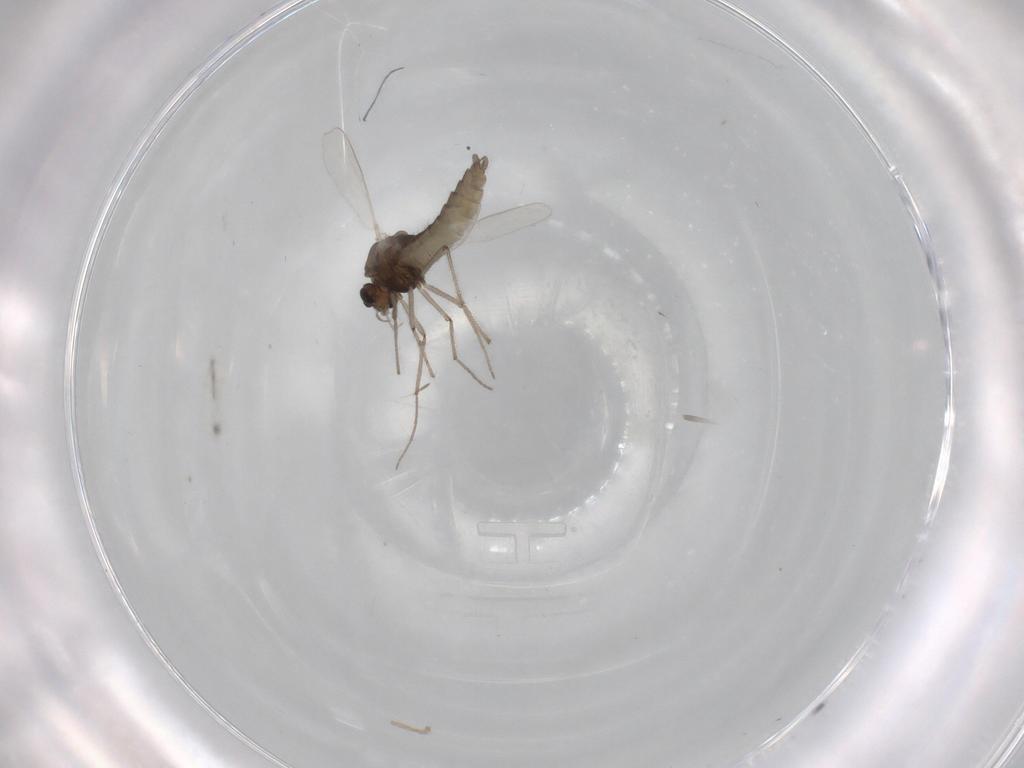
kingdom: Animalia
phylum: Arthropoda
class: Insecta
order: Diptera
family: Chironomidae
